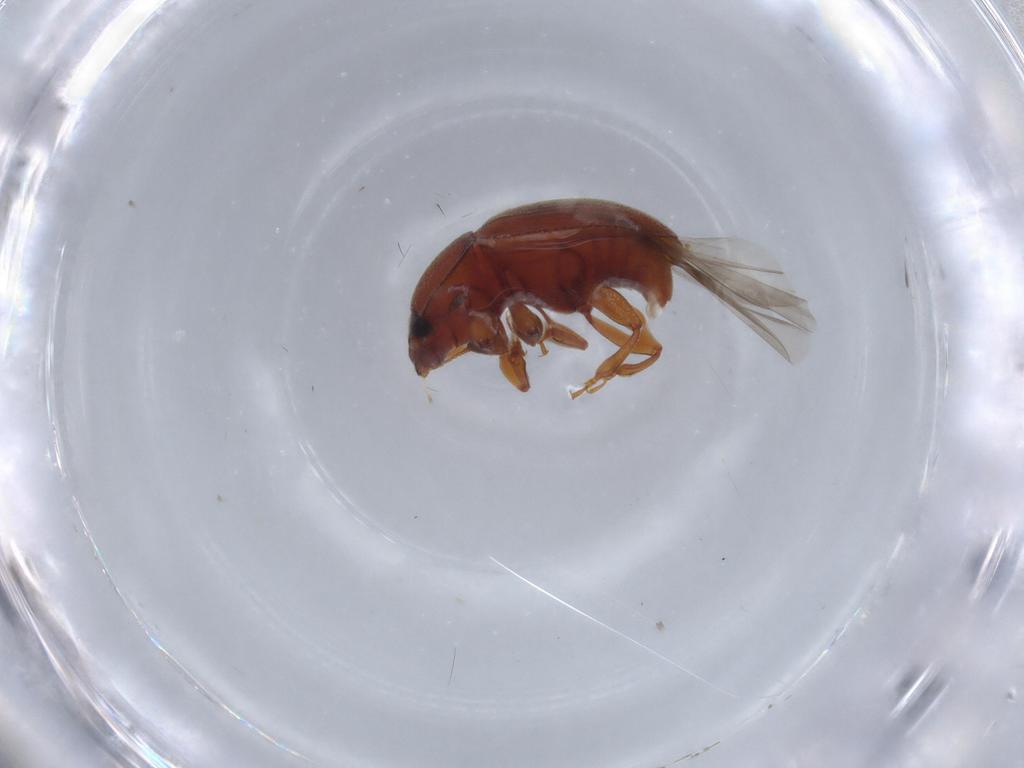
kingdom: Animalia
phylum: Arthropoda
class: Insecta
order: Coleoptera
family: Nitidulidae
